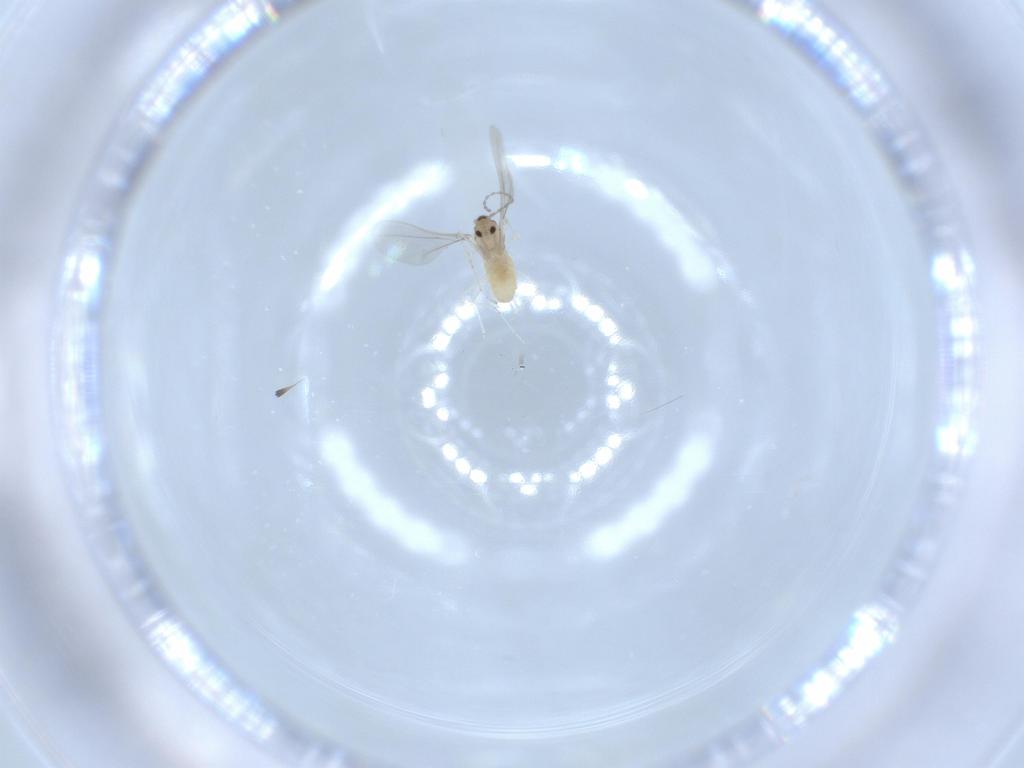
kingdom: Animalia
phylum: Arthropoda
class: Insecta
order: Diptera
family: Cecidomyiidae
